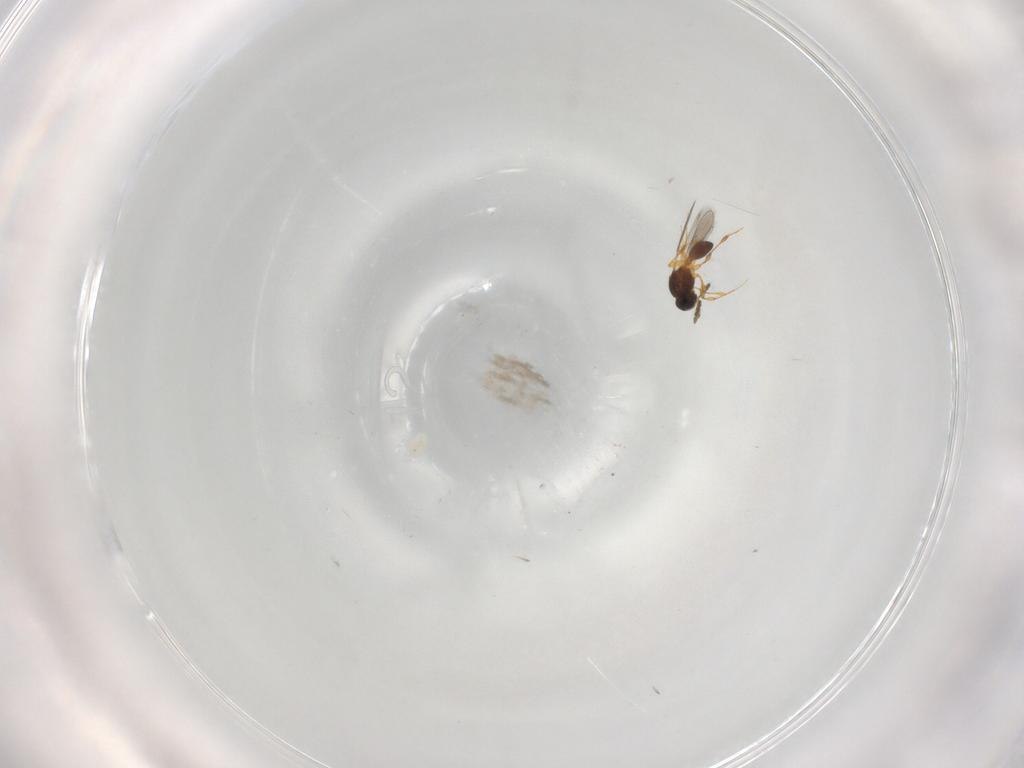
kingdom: Animalia
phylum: Arthropoda
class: Insecta
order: Hymenoptera
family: Platygastridae
